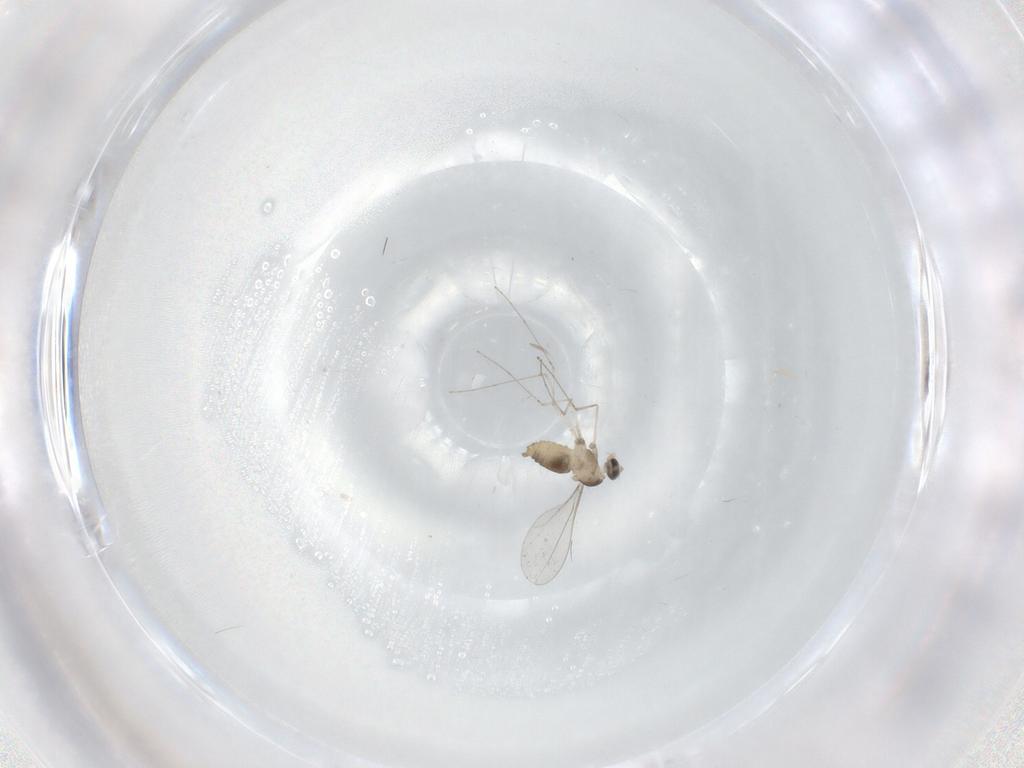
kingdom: Animalia
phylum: Arthropoda
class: Insecta
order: Diptera
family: Cecidomyiidae
